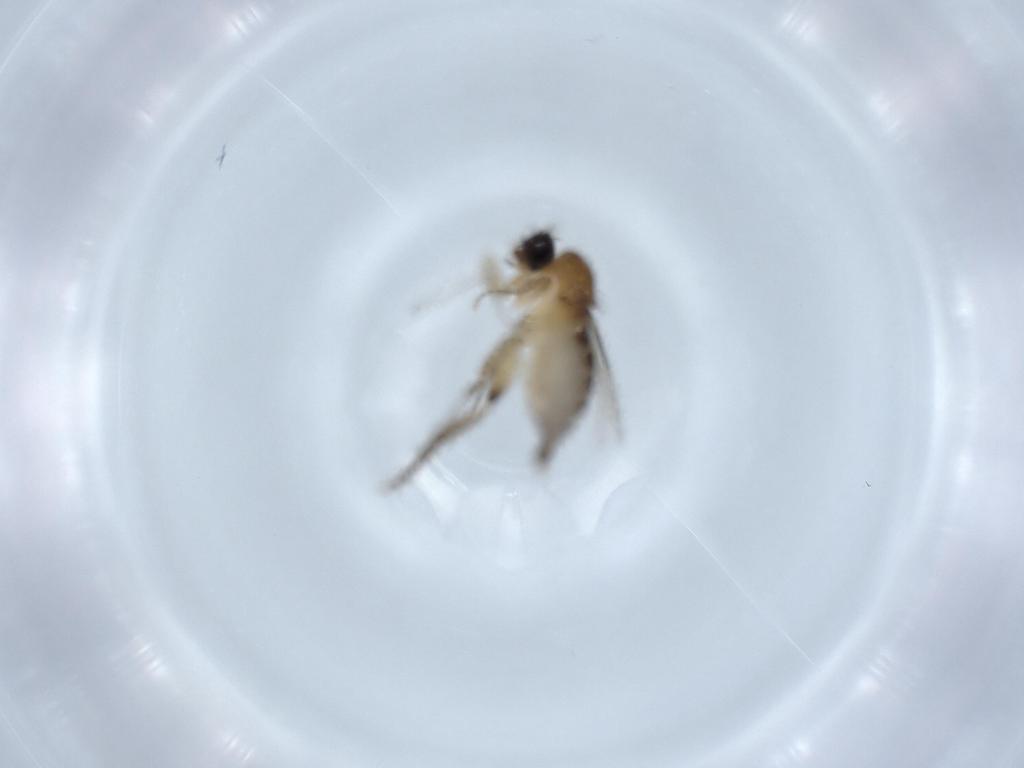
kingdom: Animalia
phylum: Arthropoda
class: Insecta
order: Diptera
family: Phoridae
